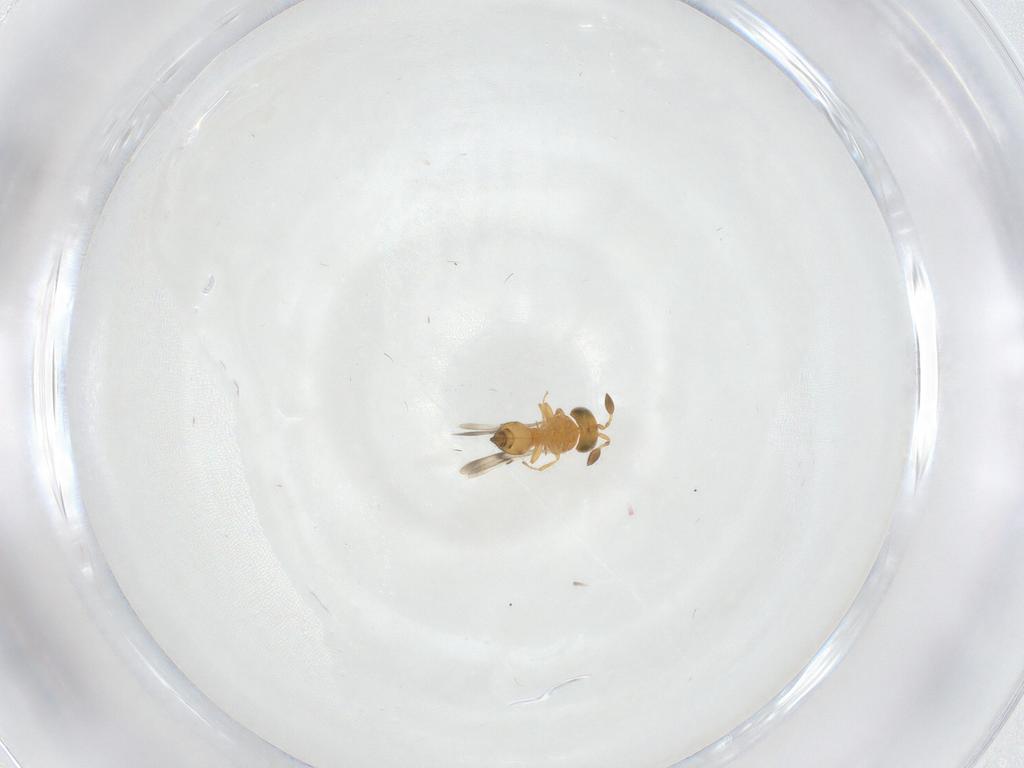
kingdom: Animalia
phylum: Arthropoda
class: Insecta
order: Hymenoptera
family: Scelionidae
